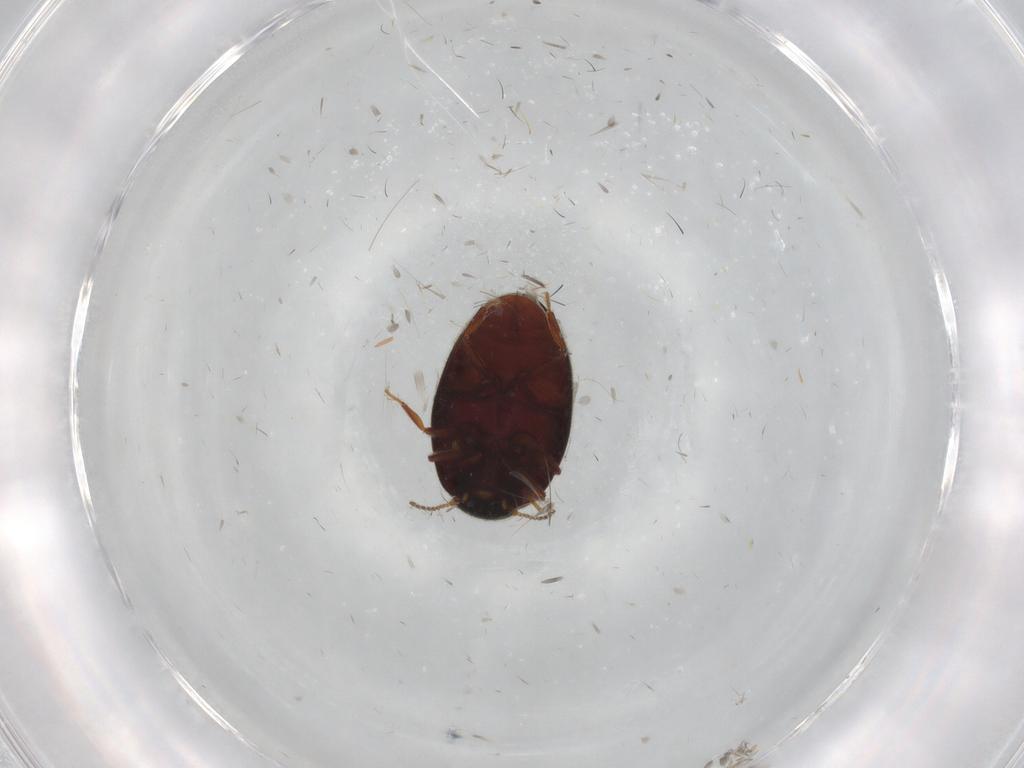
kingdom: Animalia
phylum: Arthropoda
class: Insecta
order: Coleoptera
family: Limnichidae
